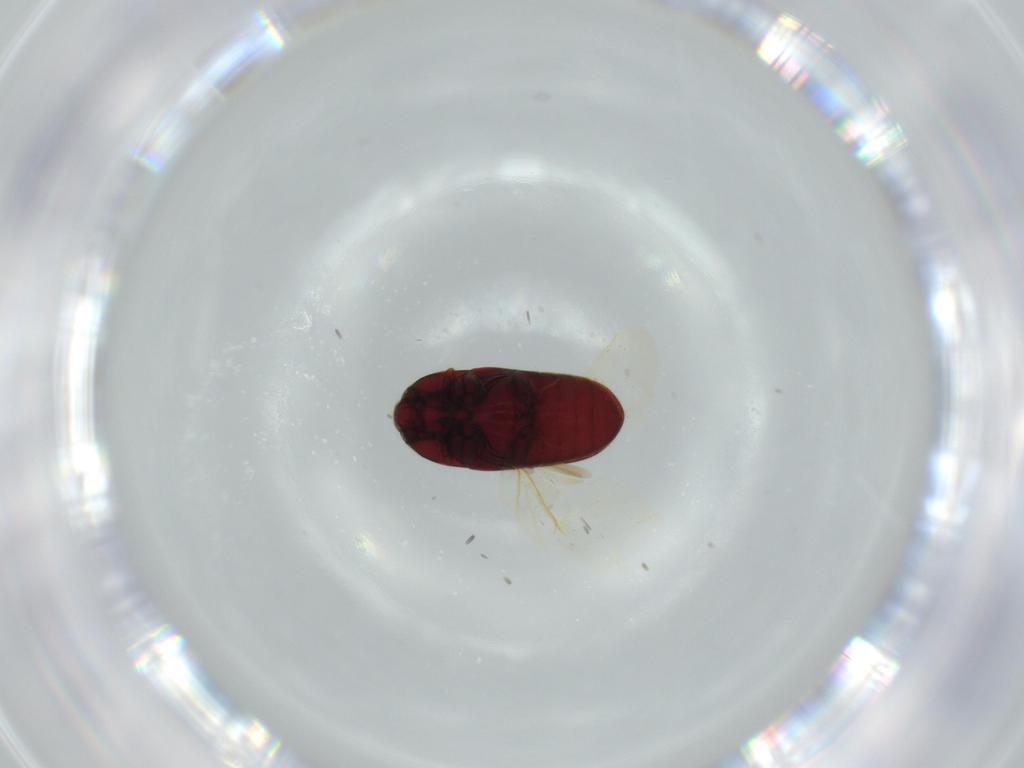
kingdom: Animalia
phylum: Arthropoda
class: Insecta
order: Coleoptera
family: Throscidae
